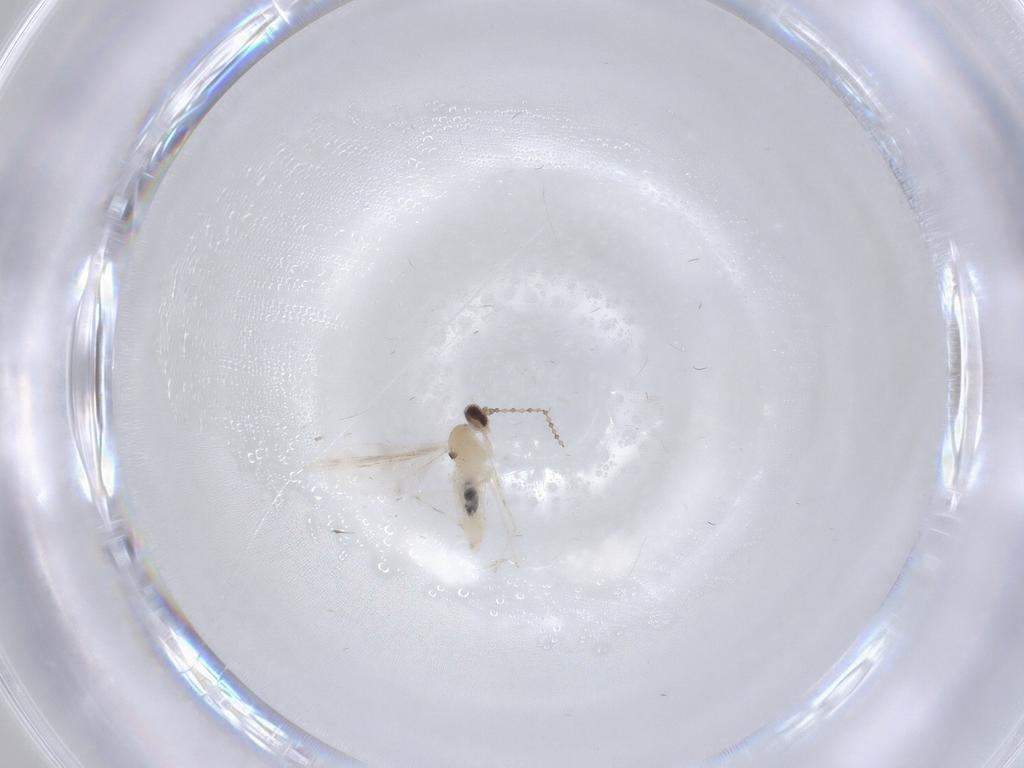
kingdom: Animalia
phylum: Arthropoda
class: Insecta
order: Diptera
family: Cecidomyiidae
